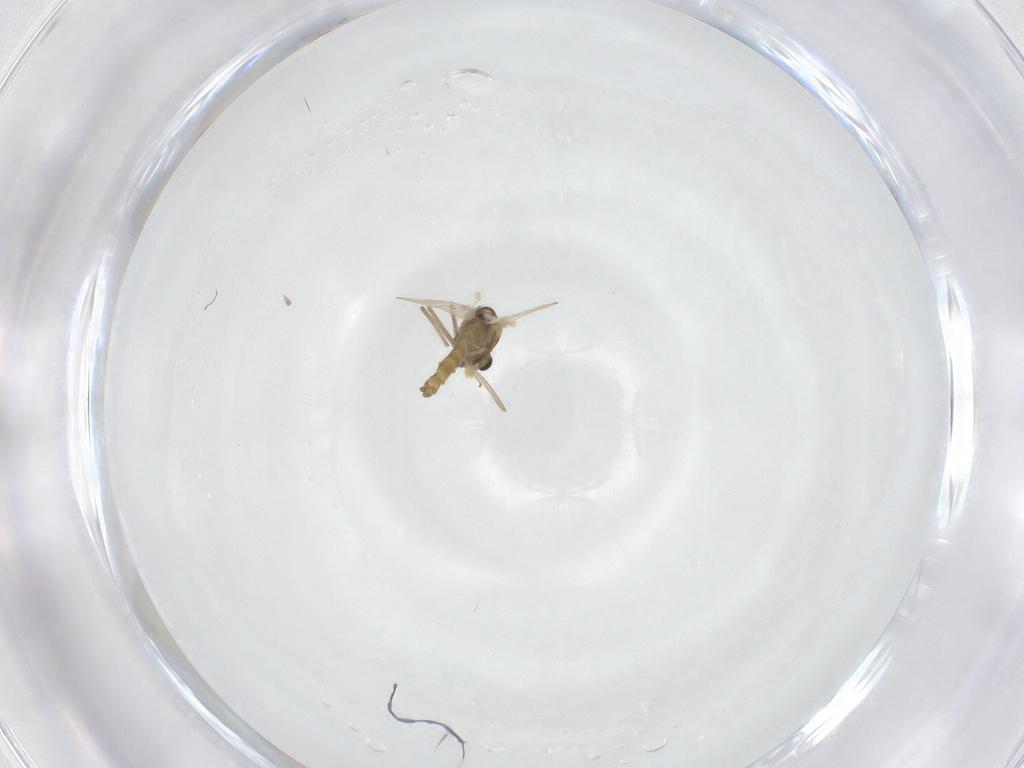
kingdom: Animalia
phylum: Arthropoda
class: Insecta
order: Diptera
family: Chironomidae
